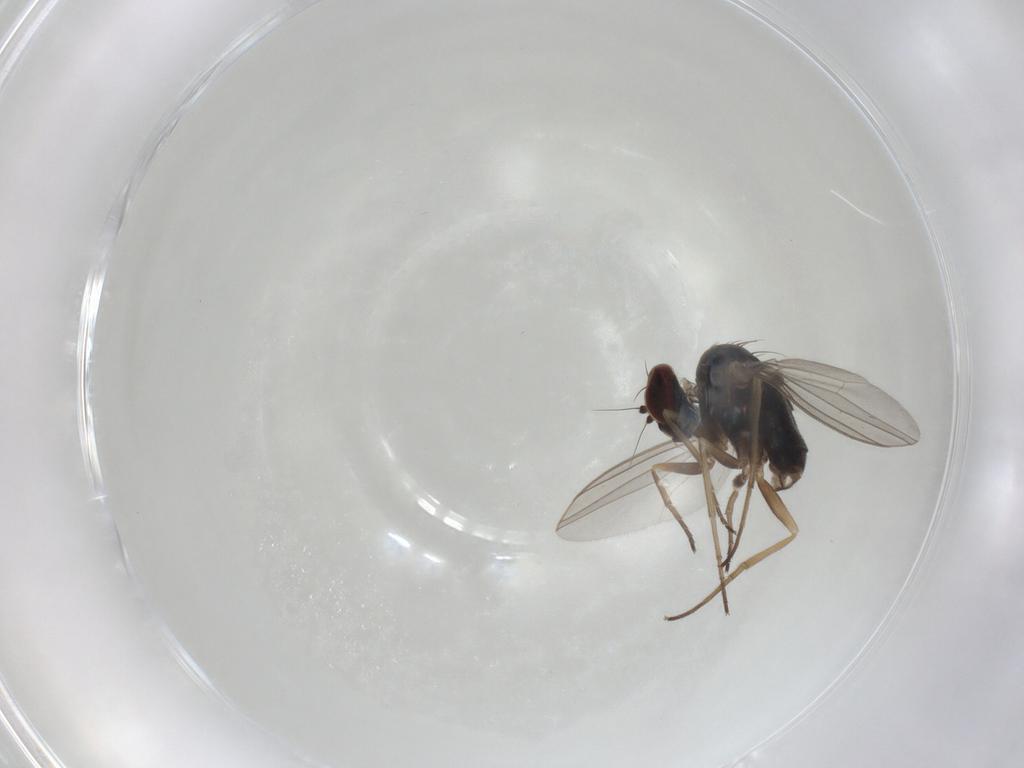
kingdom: Animalia
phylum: Arthropoda
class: Insecta
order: Diptera
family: Dolichopodidae
